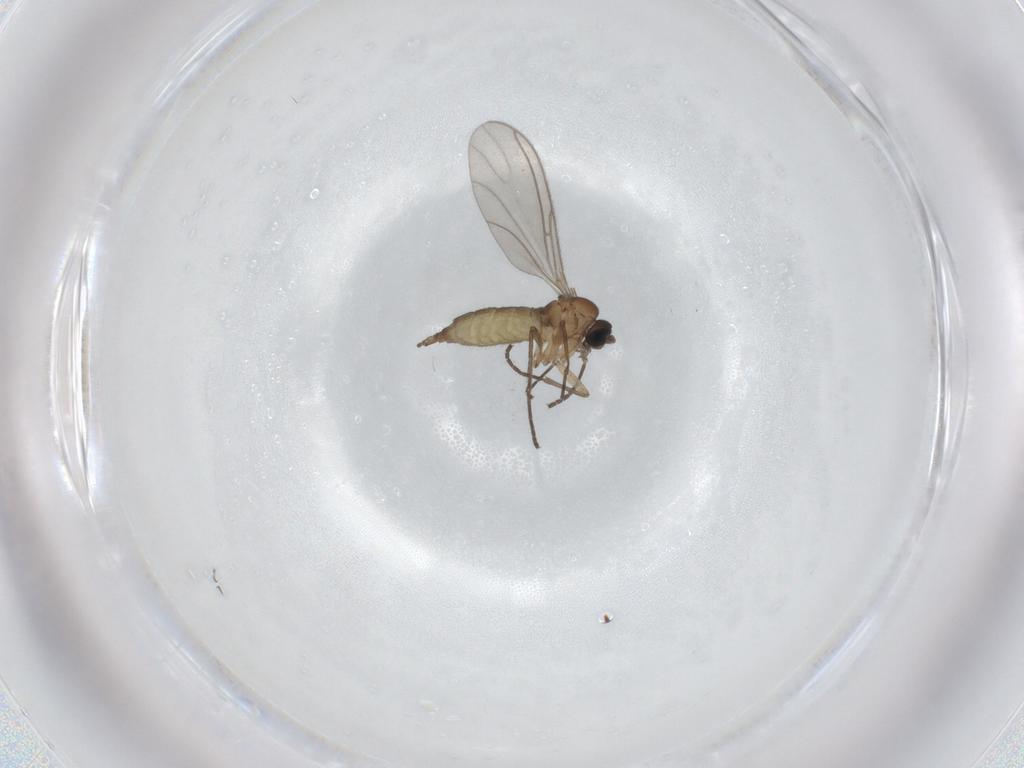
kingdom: Animalia
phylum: Arthropoda
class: Insecta
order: Diptera
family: Sciaridae
